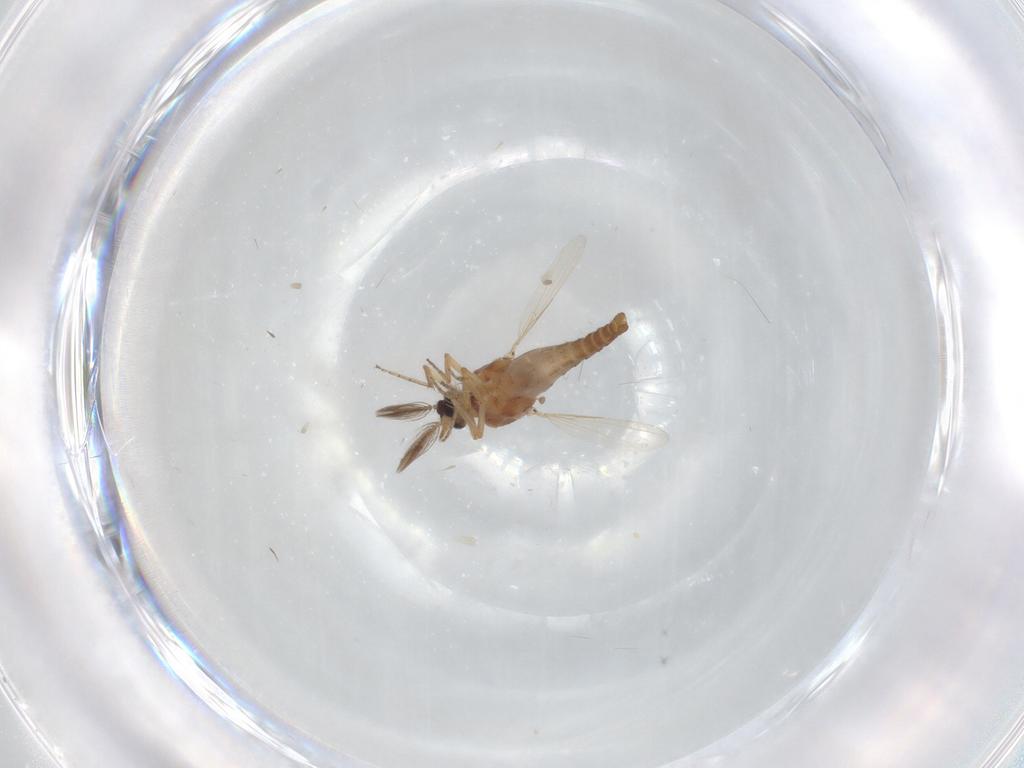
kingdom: Animalia
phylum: Arthropoda
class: Insecta
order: Diptera
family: Ceratopogonidae
